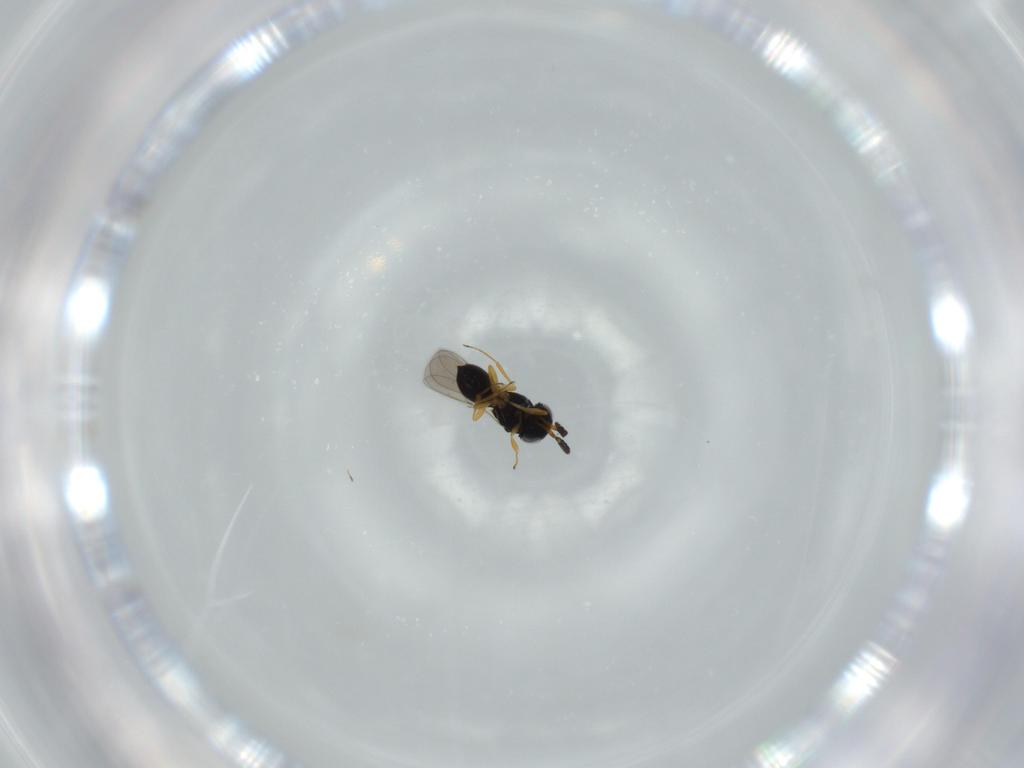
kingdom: Animalia
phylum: Arthropoda
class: Insecta
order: Hymenoptera
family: Scelionidae
